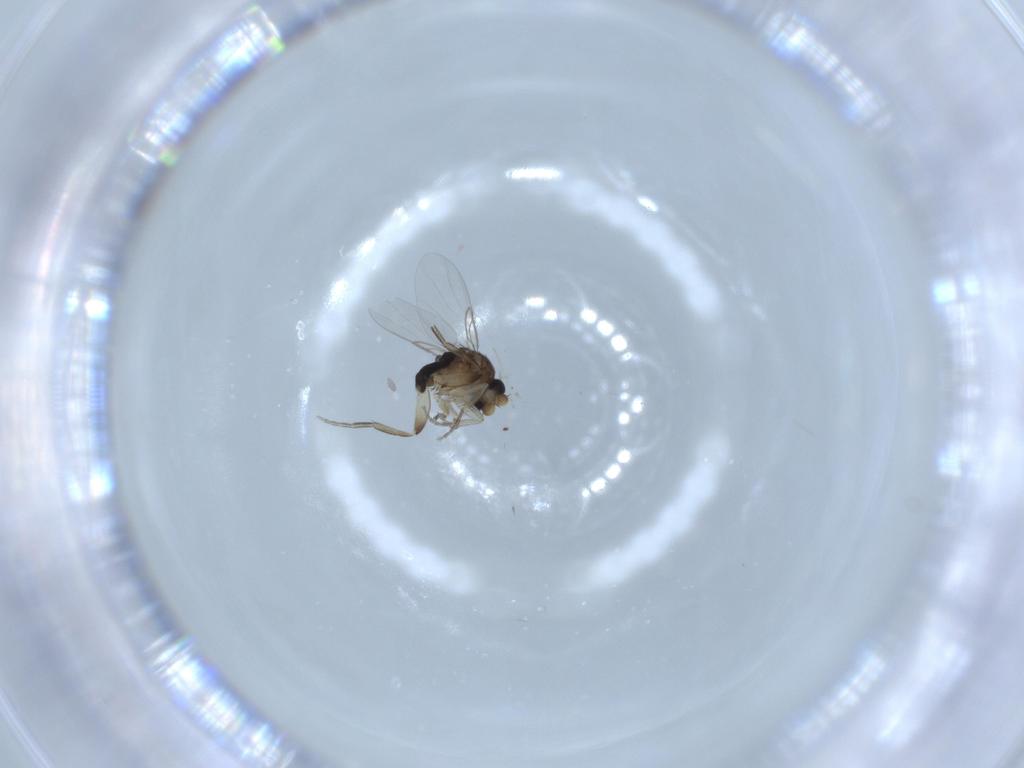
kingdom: Animalia
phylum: Arthropoda
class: Insecta
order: Diptera
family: Phoridae
